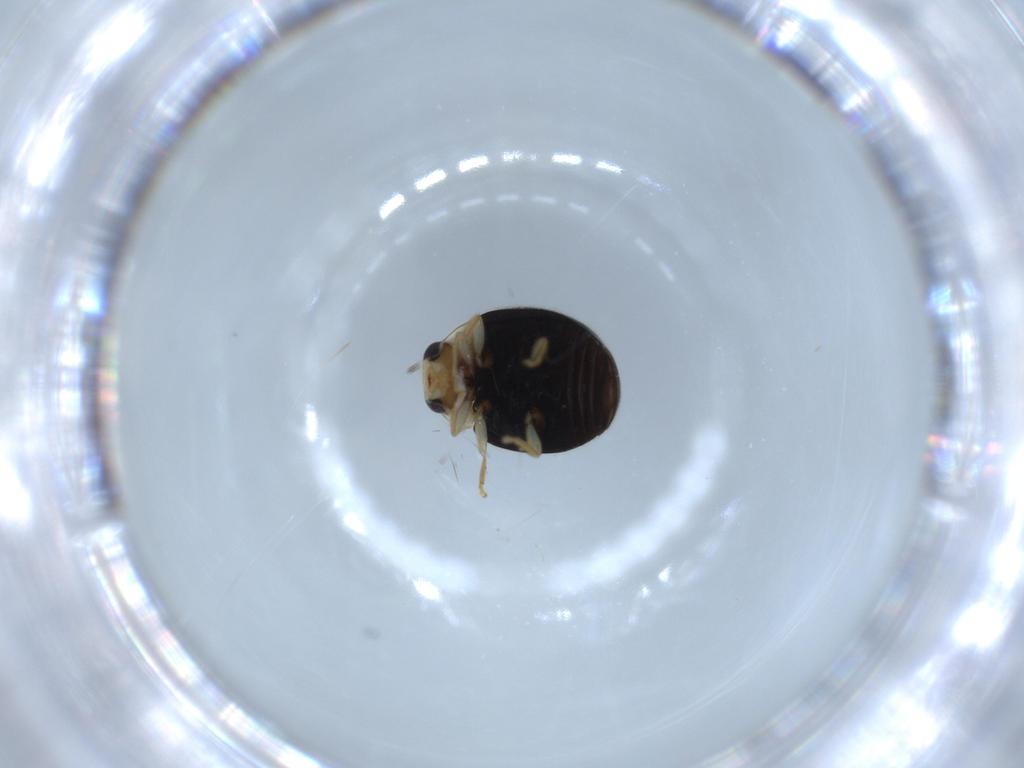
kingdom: Animalia
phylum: Arthropoda
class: Insecta
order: Coleoptera
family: Coccinellidae
